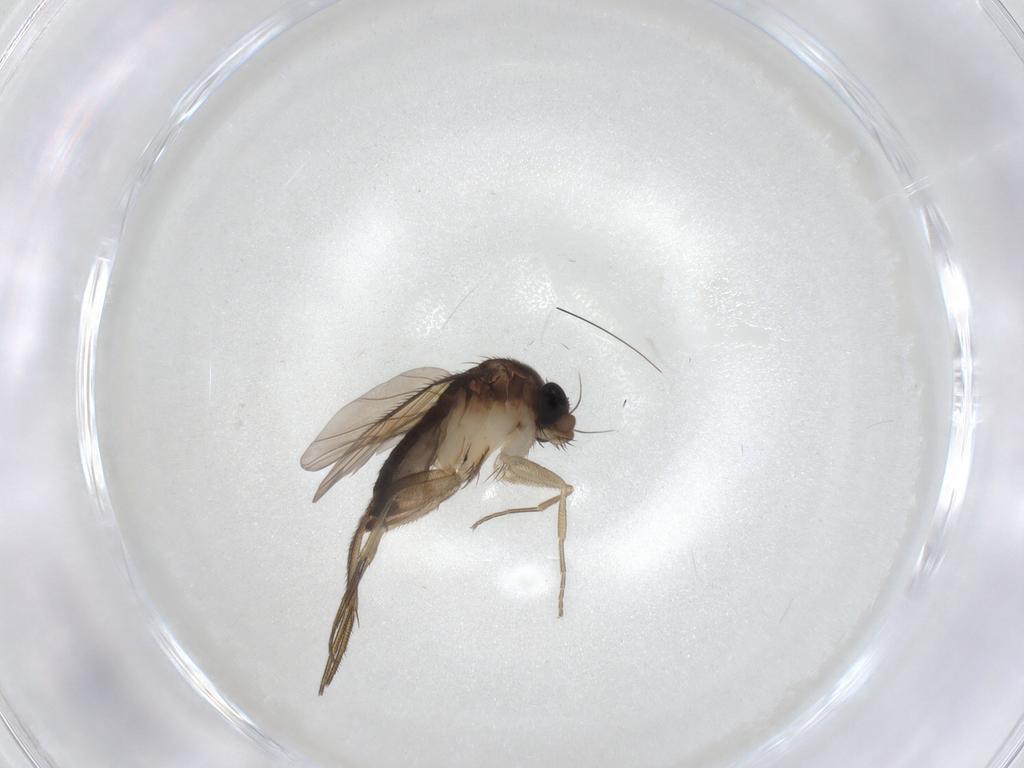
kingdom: Animalia
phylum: Arthropoda
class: Insecta
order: Diptera
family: Phoridae
